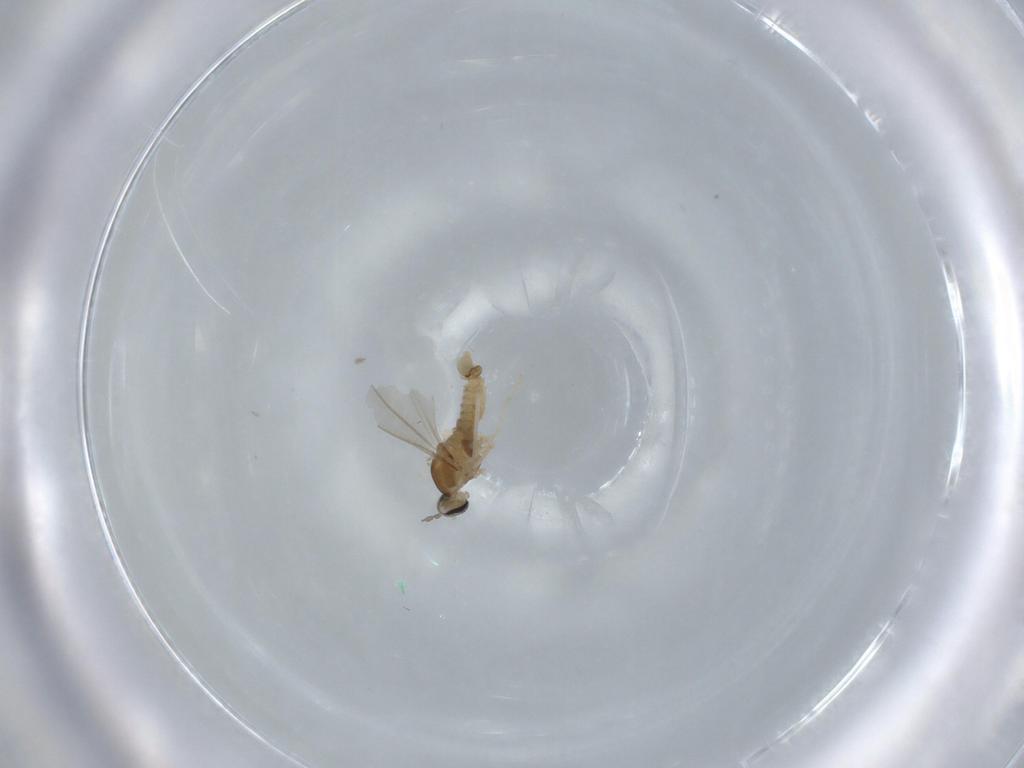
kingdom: Animalia
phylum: Arthropoda
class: Insecta
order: Diptera
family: Cecidomyiidae
